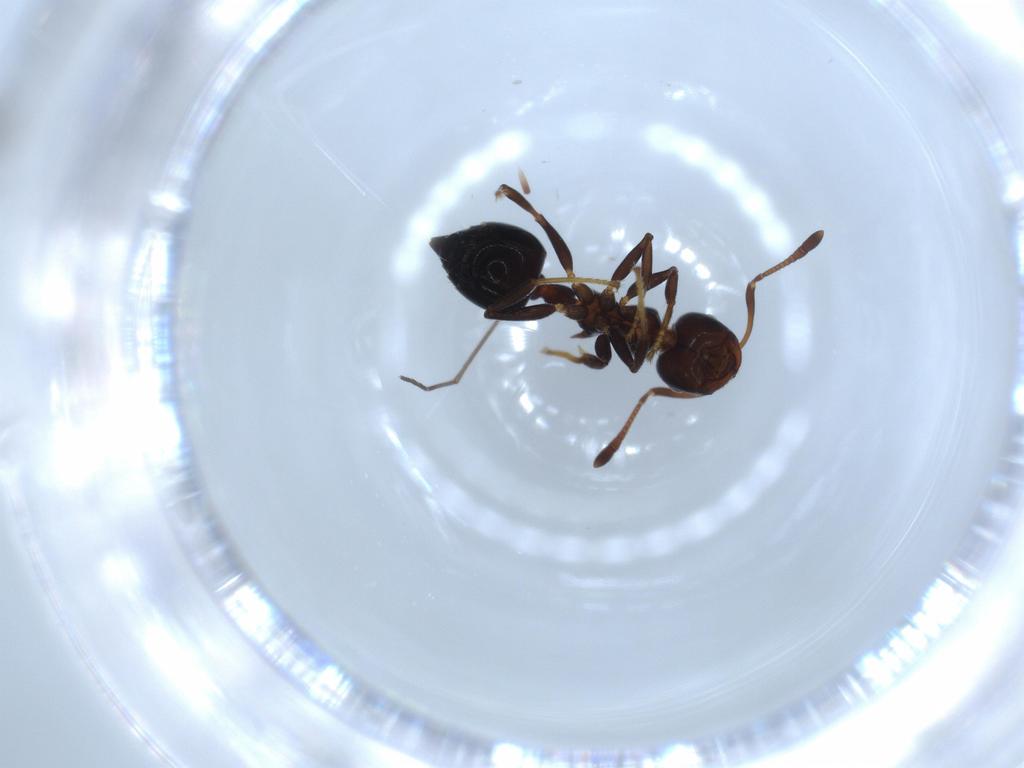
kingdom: Animalia
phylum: Arthropoda
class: Insecta
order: Hymenoptera
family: Formicidae
